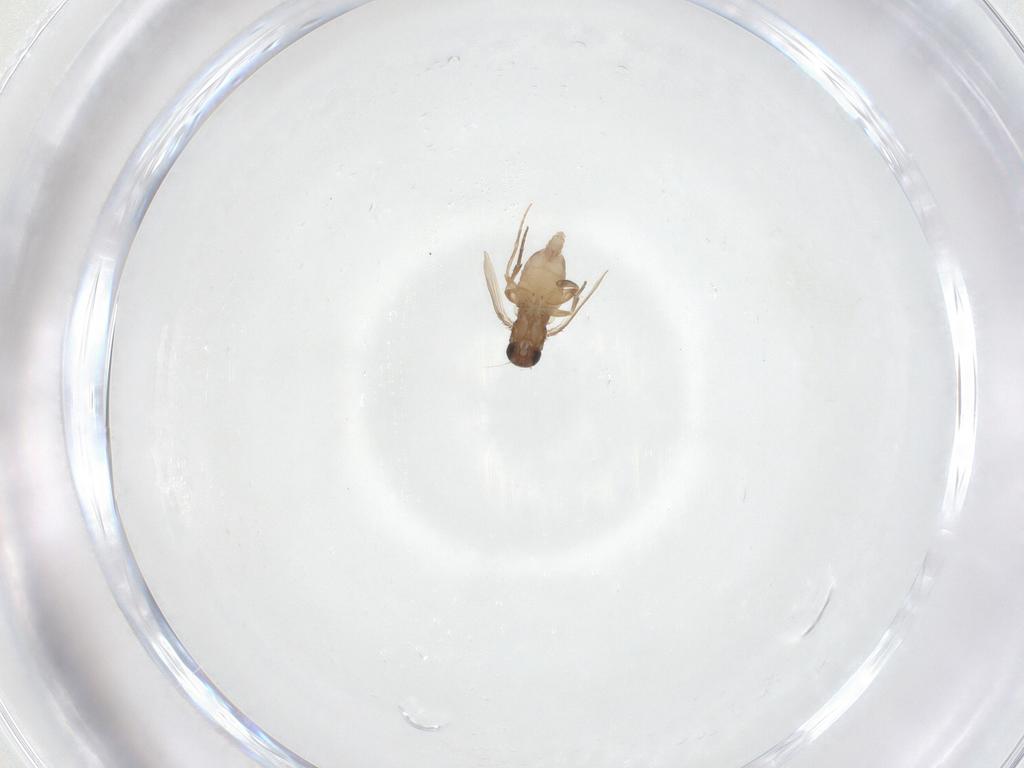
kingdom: Animalia
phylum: Arthropoda
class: Insecta
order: Diptera
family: Phoridae
